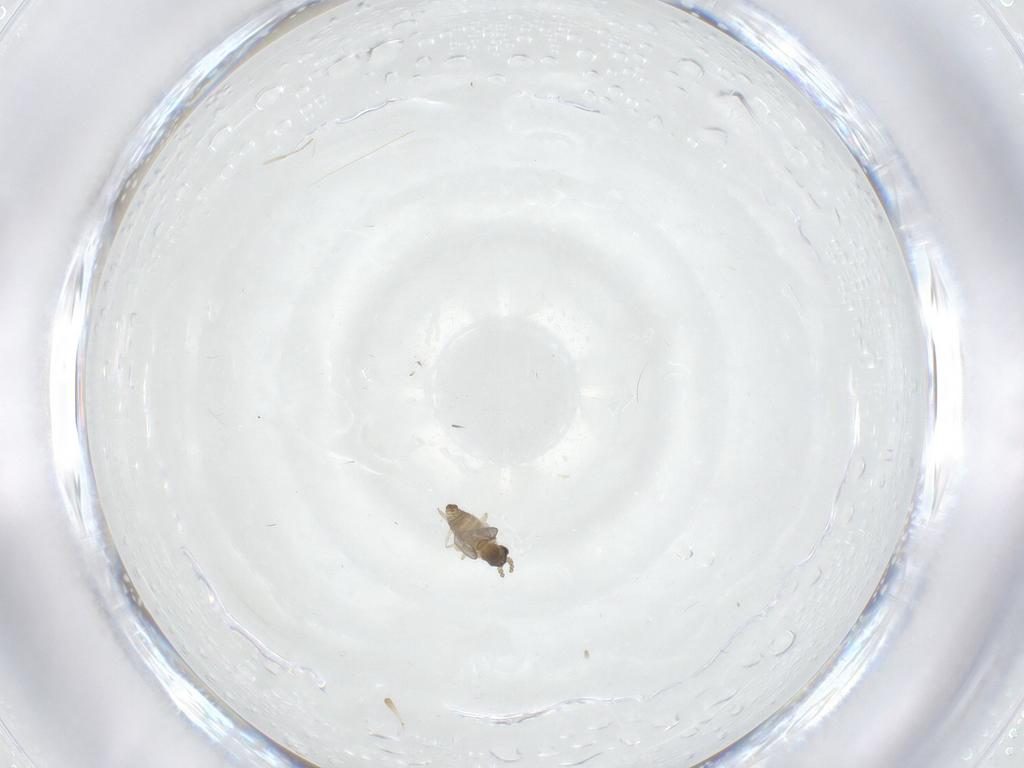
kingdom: Animalia
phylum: Arthropoda
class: Insecta
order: Diptera
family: Cecidomyiidae
